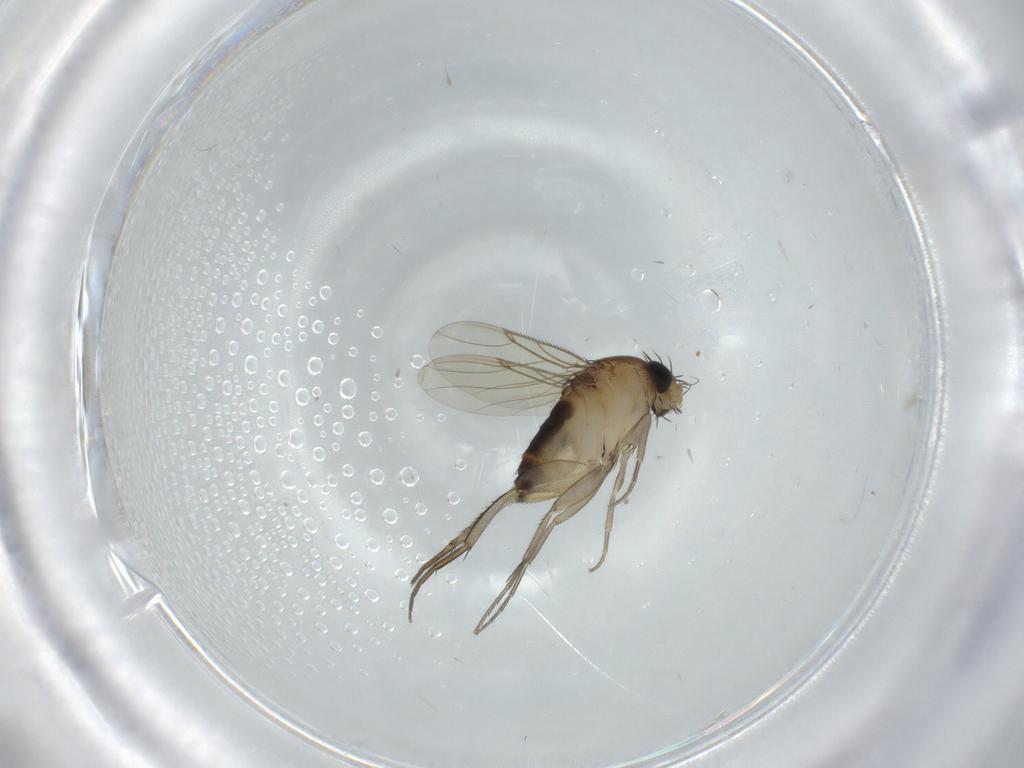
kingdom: Animalia
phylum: Arthropoda
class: Insecta
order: Diptera
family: Phoridae
